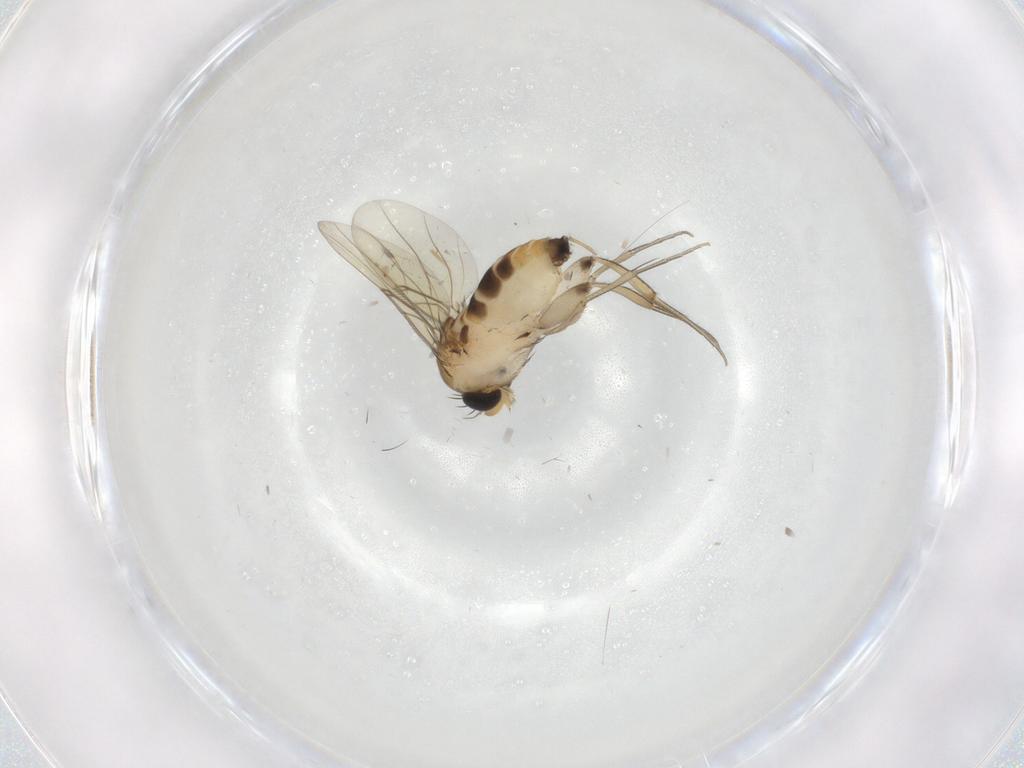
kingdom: Animalia
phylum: Arthropoda
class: Insecta
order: Diptera
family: Phoridae
